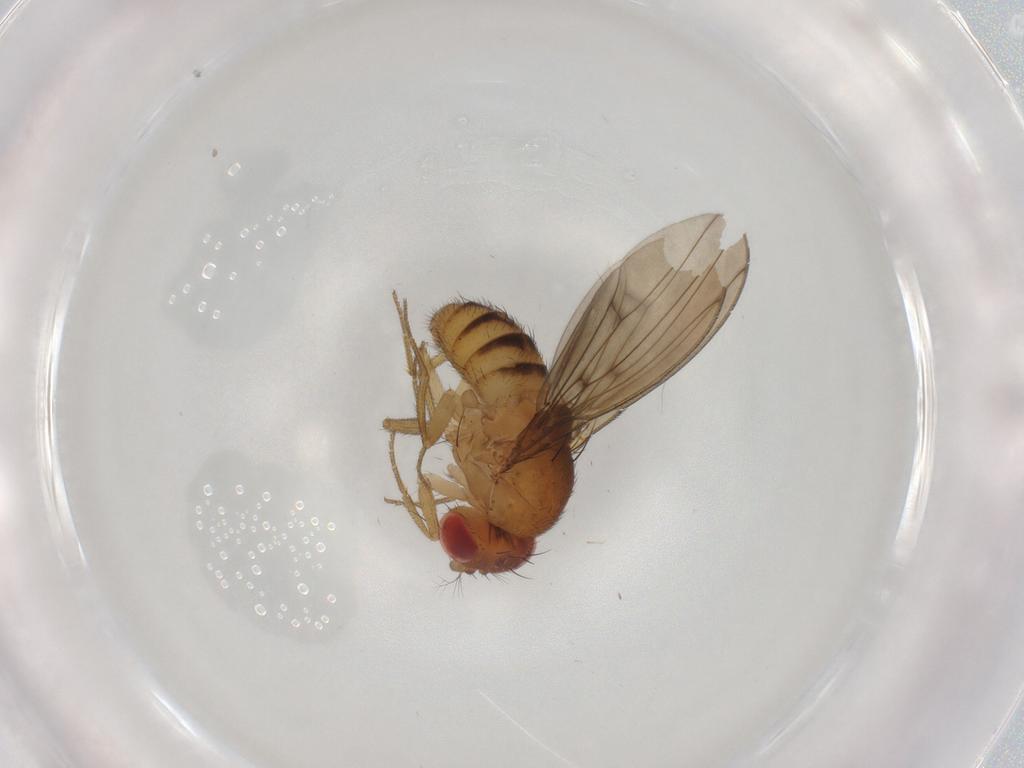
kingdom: Animalia
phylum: Arthropoda
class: Insecta
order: Diptera
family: Drosophilidae
